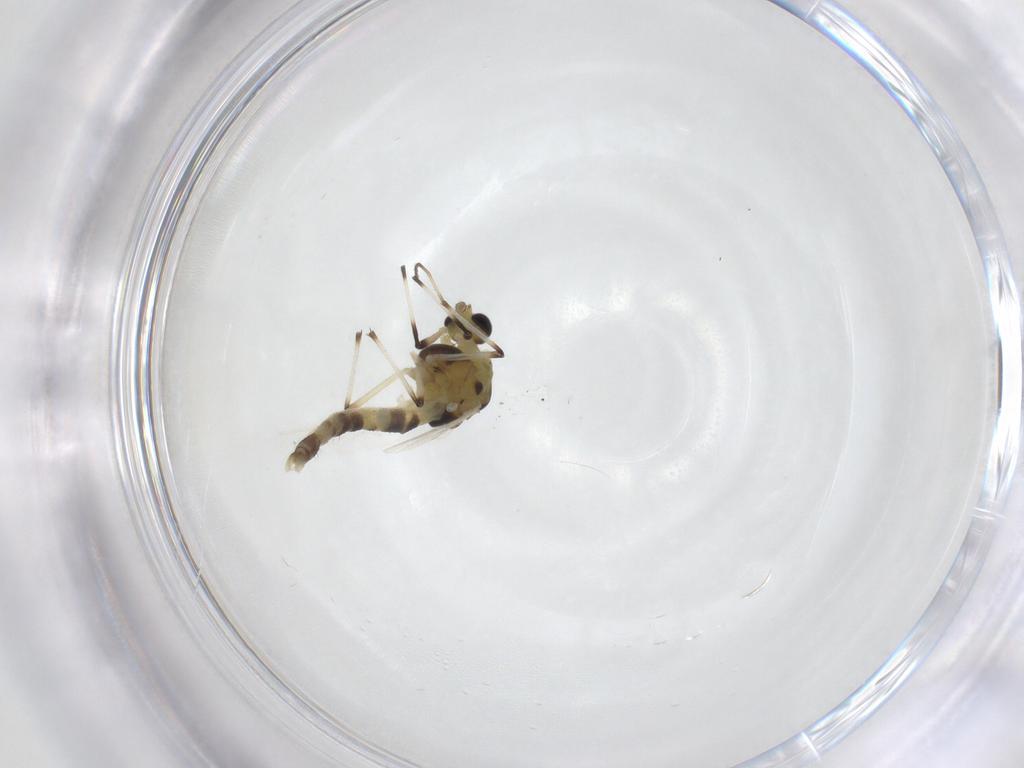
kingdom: Animalia
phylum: Arthropoda
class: Insecta
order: Diptera
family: Chironomidae
